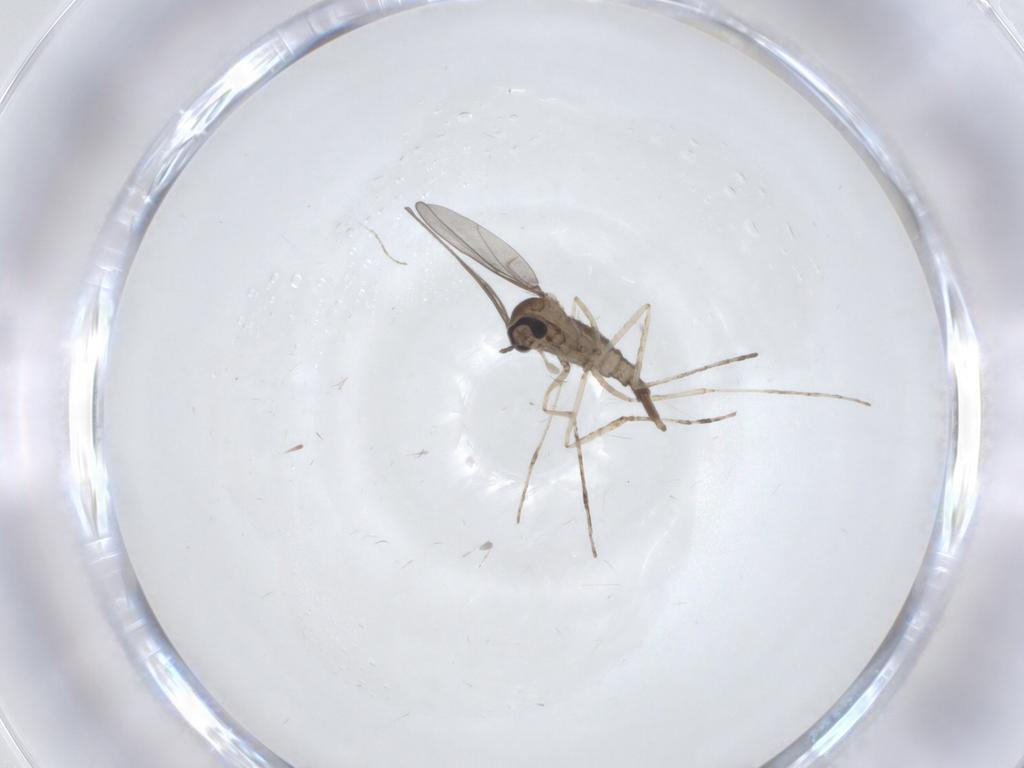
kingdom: Animalia
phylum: Arthropoda
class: Insecta
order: Diptera
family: Cecidomyiidae
